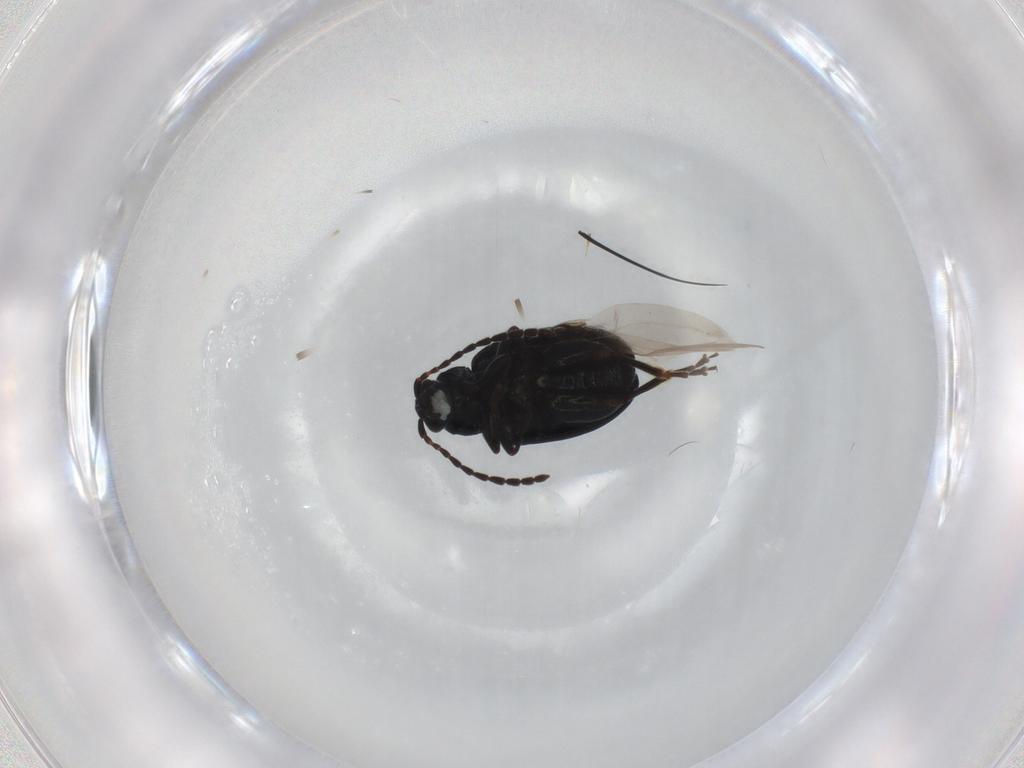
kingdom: Animalia
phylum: Arthropoda
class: Insecta
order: Coleoptera
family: Chrysomelidae
